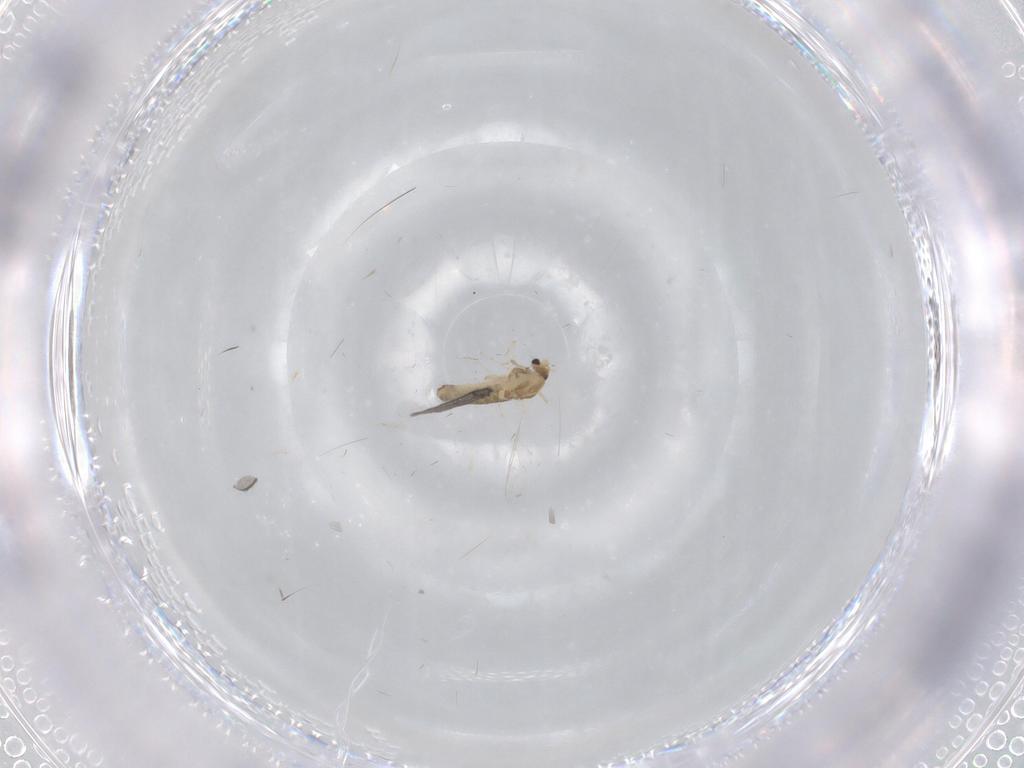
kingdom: Animalia
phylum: Arthropoda
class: Insecta
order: Diptera
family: Chironomidae
